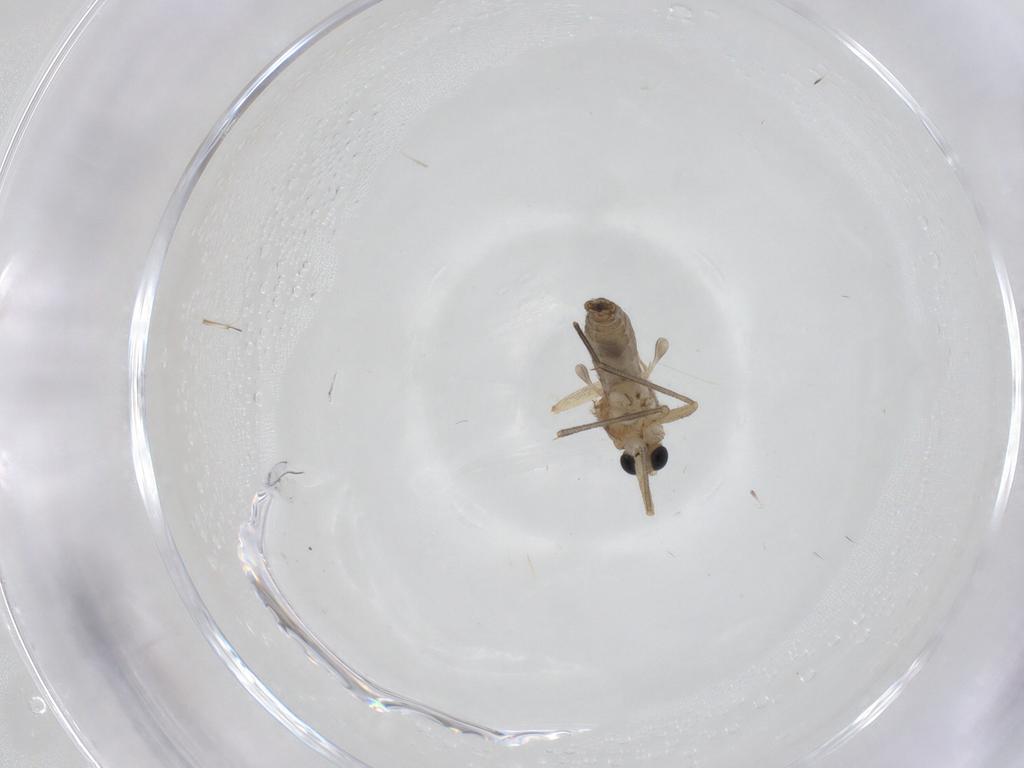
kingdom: Animalia
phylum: Arthropoda
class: Insecta
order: Diptera
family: Sciaridae
